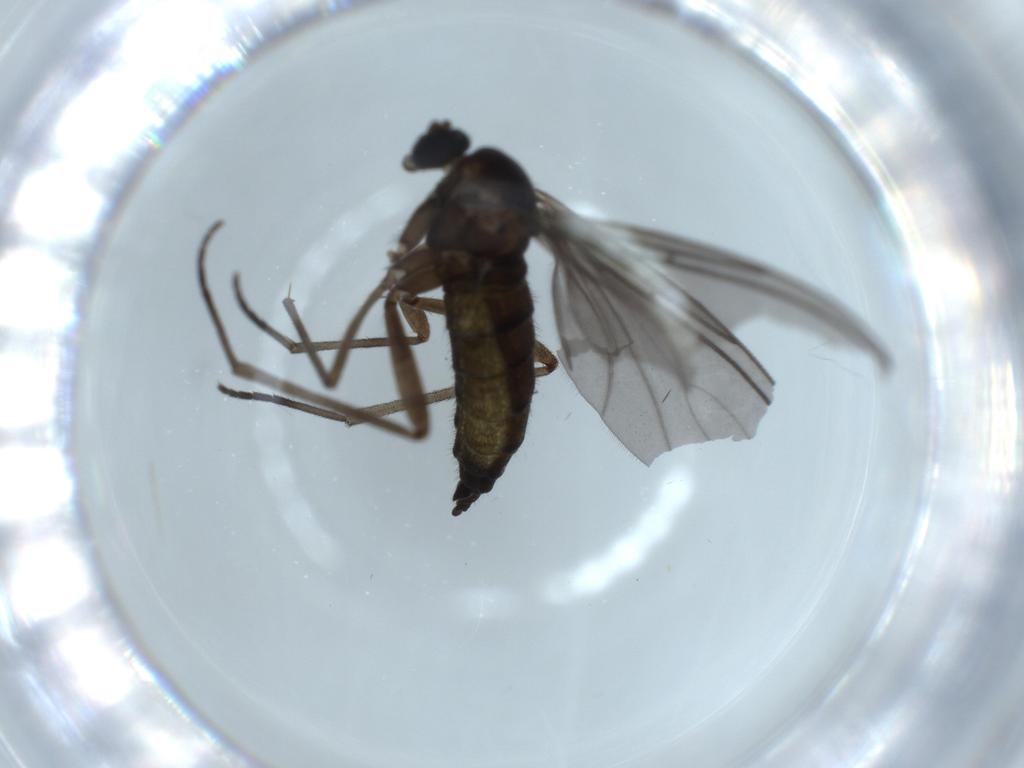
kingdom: Animalia
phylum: Arthropoda
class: Insecta
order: Diptera
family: Sciaridae
